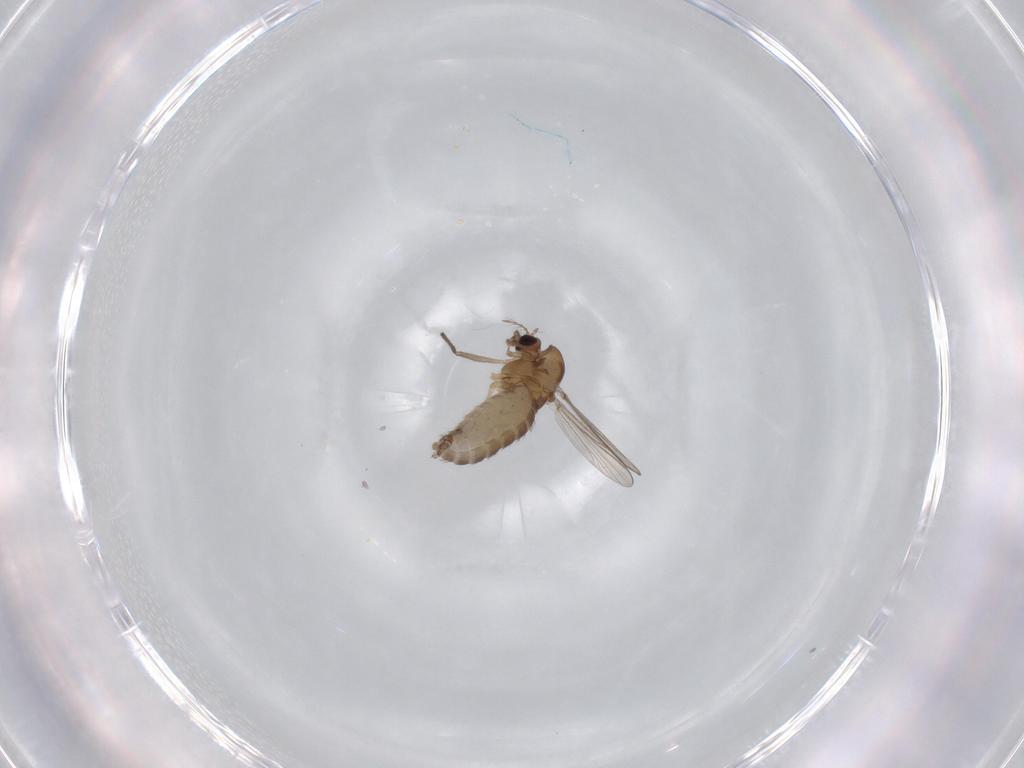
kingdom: Animalia
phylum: Arthropoda
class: Insecta
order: Diptera
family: Chironomidae
